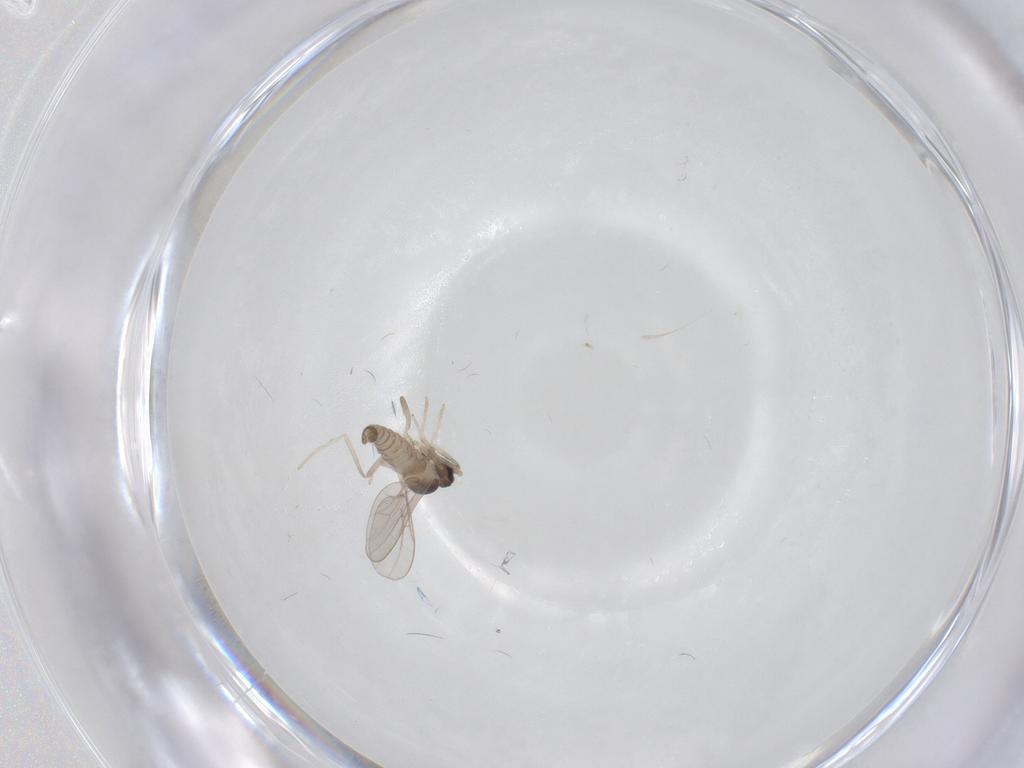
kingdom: Animalia
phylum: Arthropoda
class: Insecta
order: Diptera
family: Cecidomyiidae
